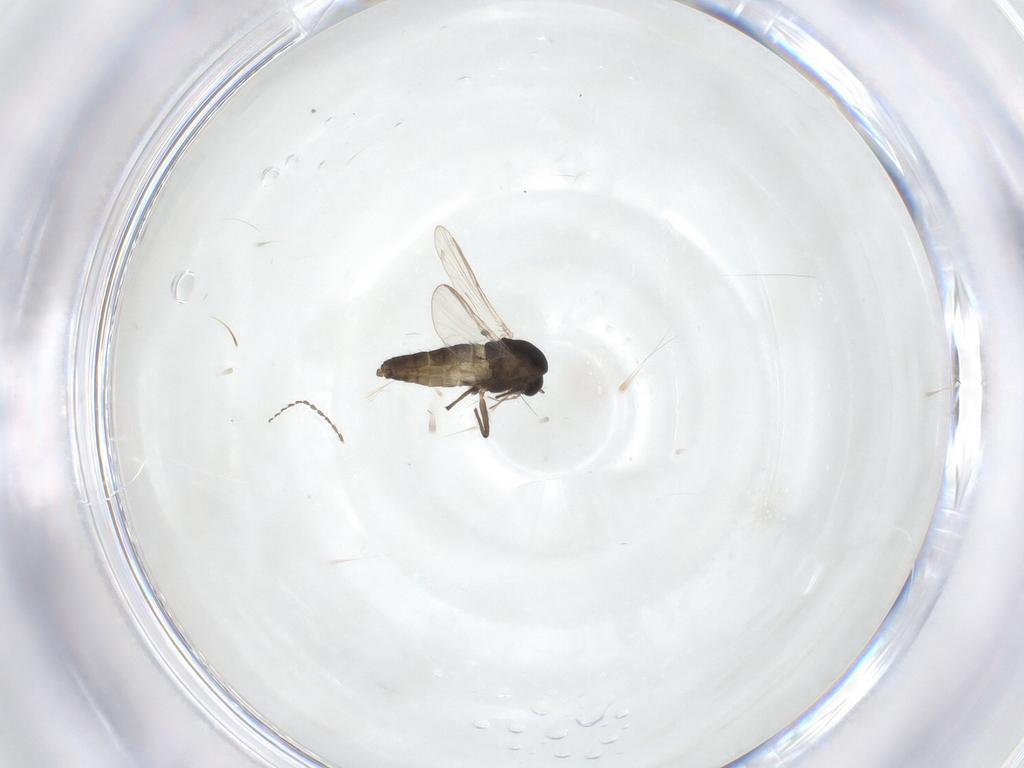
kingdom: Animalia
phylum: Arthropoda
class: Insecta
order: Diptera
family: Chironomidae
